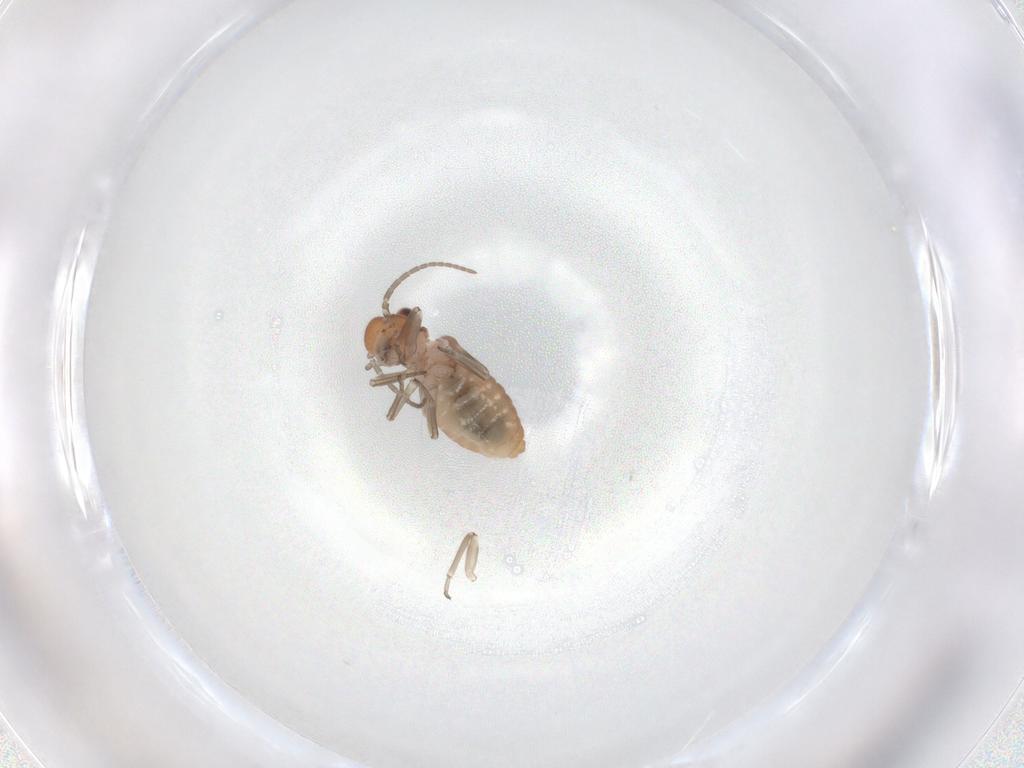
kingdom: Animalia
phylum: Arthropoda
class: Insecta
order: Psocodea
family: Caeciliusidae
